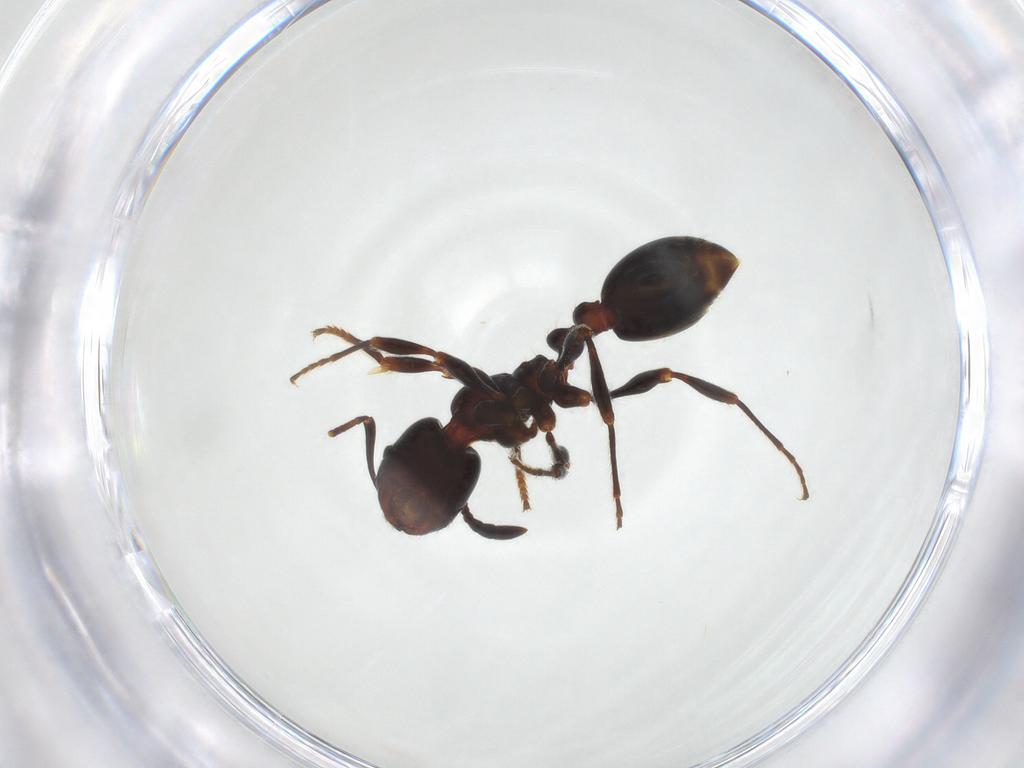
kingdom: Animalia
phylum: Arthropoda
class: Insecta
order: Hymenoptera
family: Formicidae
